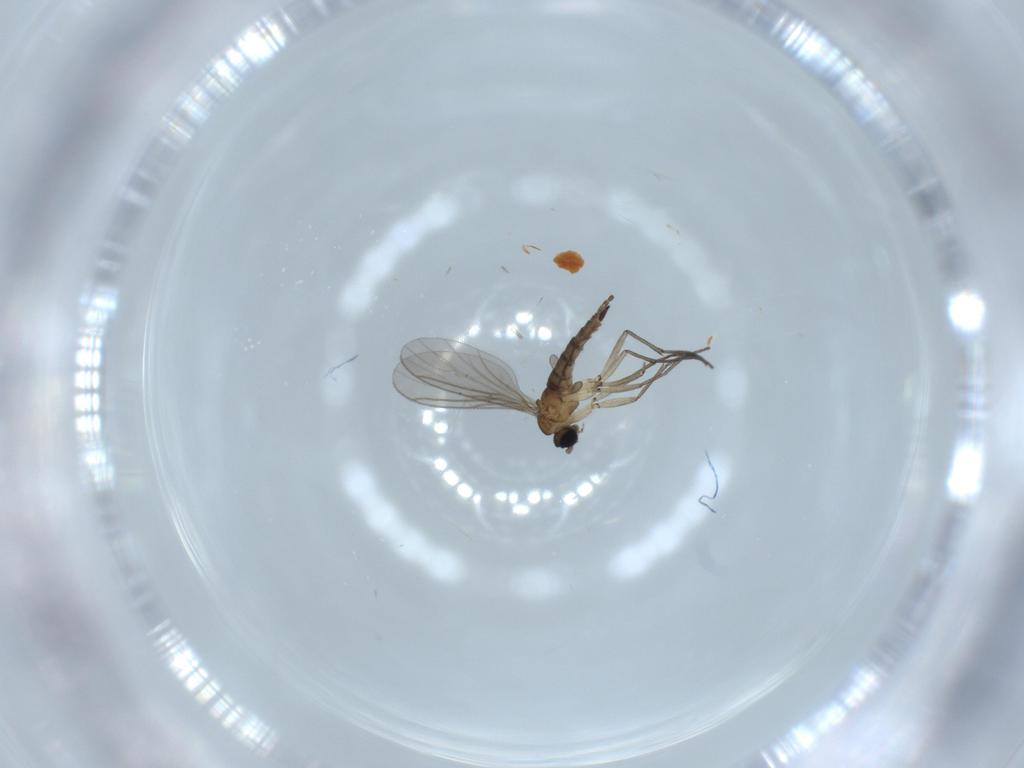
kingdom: Animalia
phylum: Arthropoda
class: Insecta
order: Diptera
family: Sciaridae
